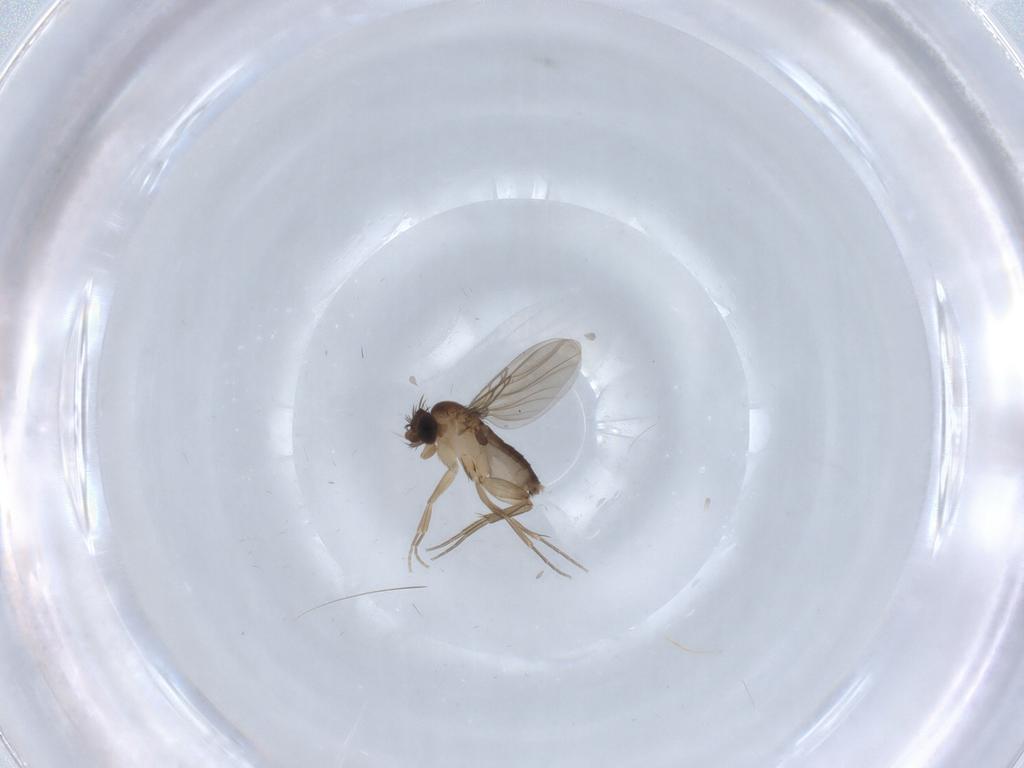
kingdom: Animalia
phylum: Arthropoda
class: Insecta
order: Diptera
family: Phoridae
